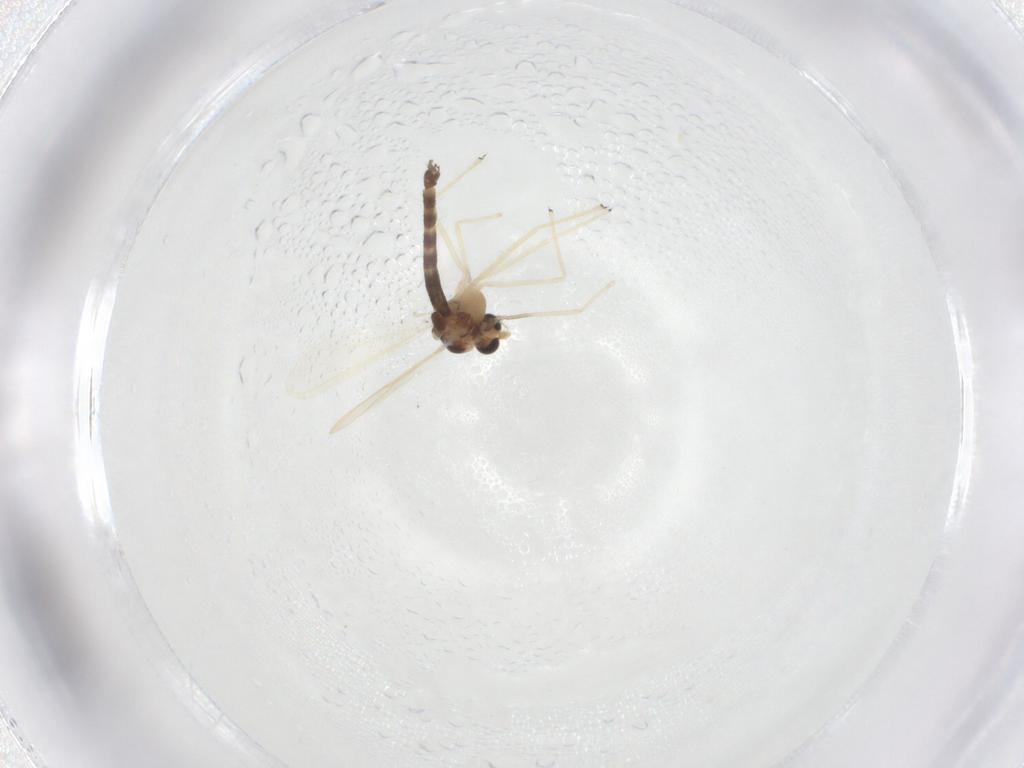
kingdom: Animalia
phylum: Arthropoda
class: Insecta
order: Diptera
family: Chironomidae
